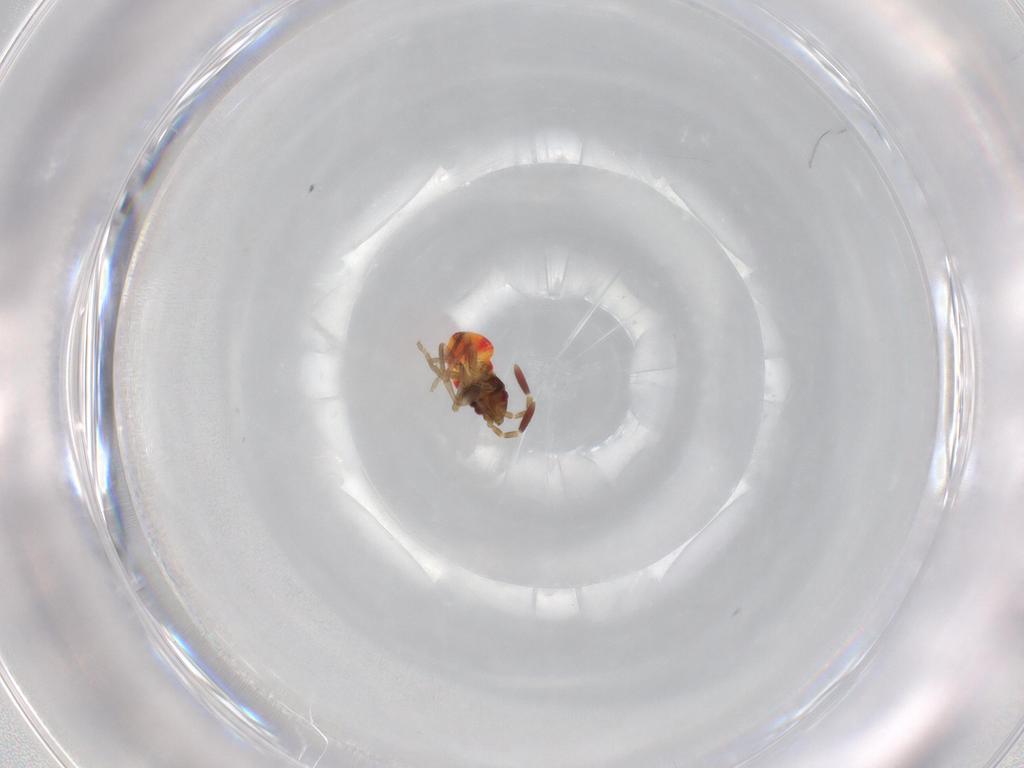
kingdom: Animalia
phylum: Arthropoda
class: Insecta
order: Hemiptera
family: Rhyparochromidae
